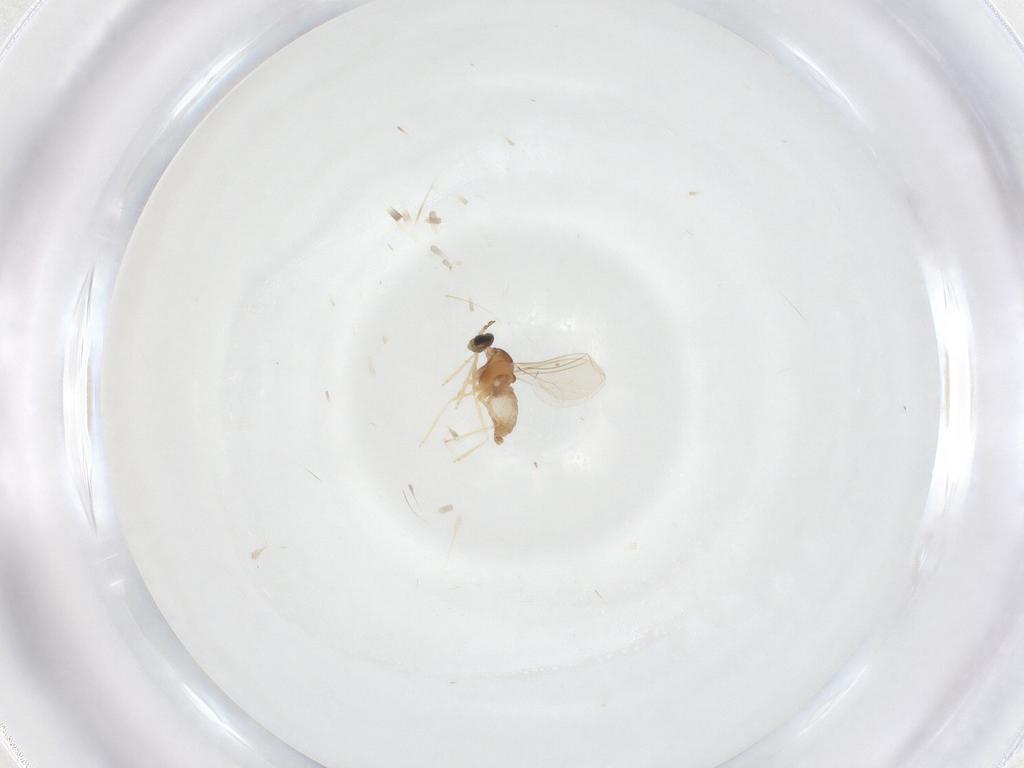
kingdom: Animalia
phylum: Arthropoda
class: Insecta
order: Diptera
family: Cecidomyiidae
